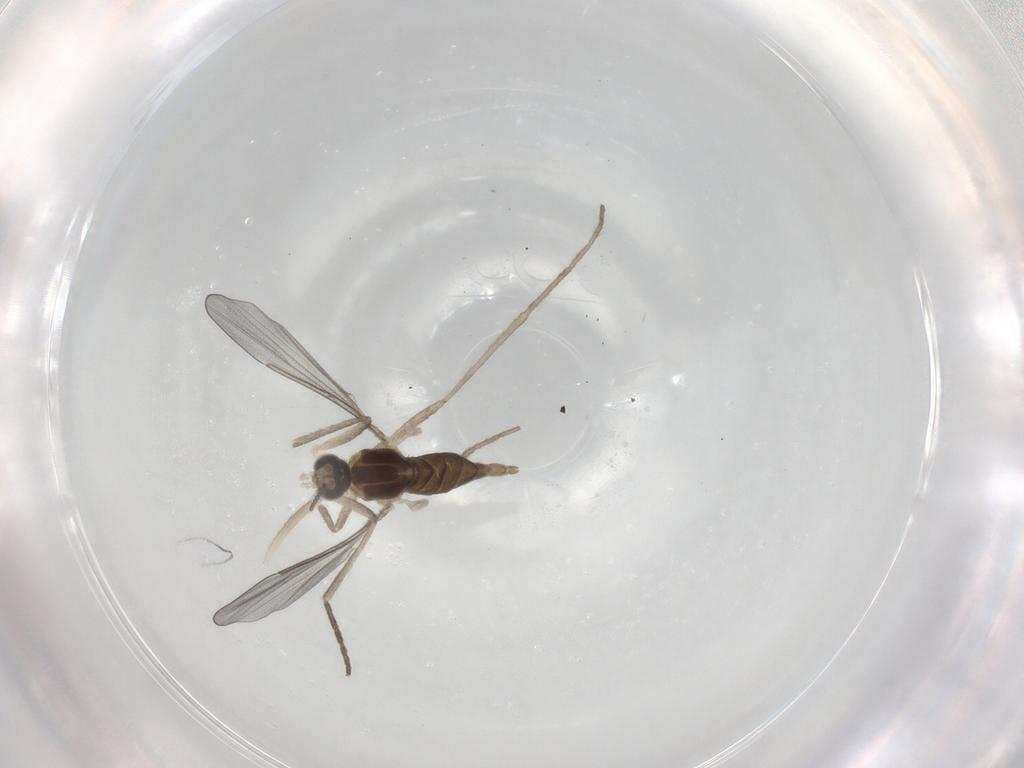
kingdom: Animalia
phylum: Arthropoda
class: Insecta
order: Diptera
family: Cecidomyiidae
